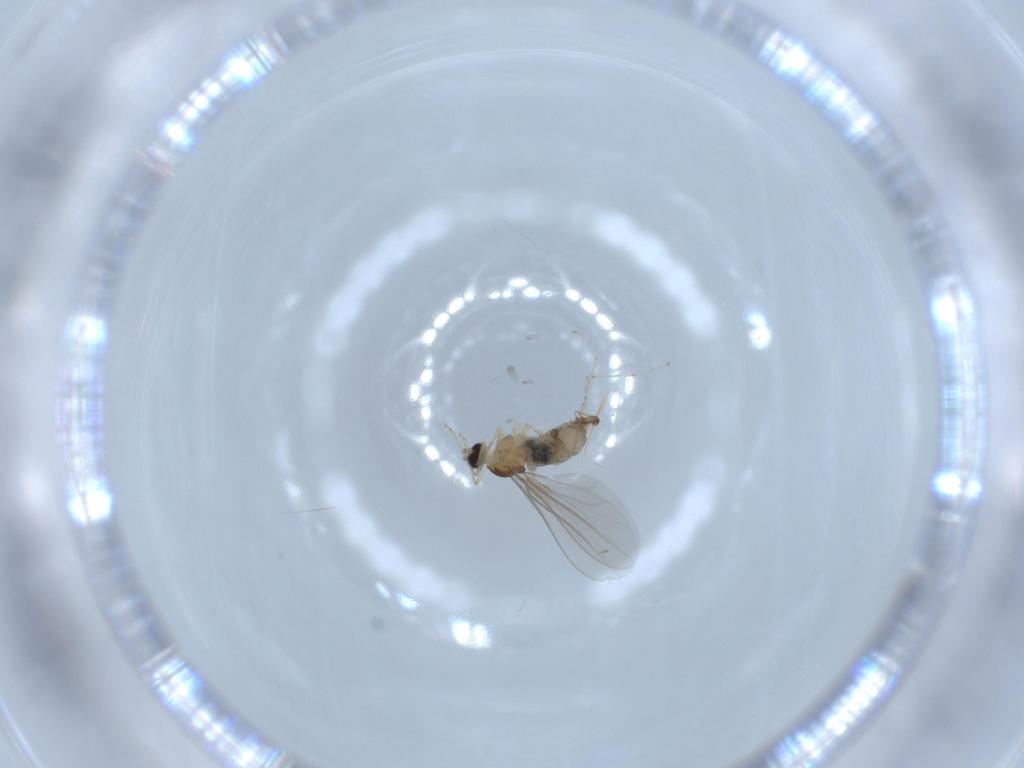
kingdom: Animalia
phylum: Arthropoda
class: Insecta
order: Diptera
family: Cecidomyiidae
